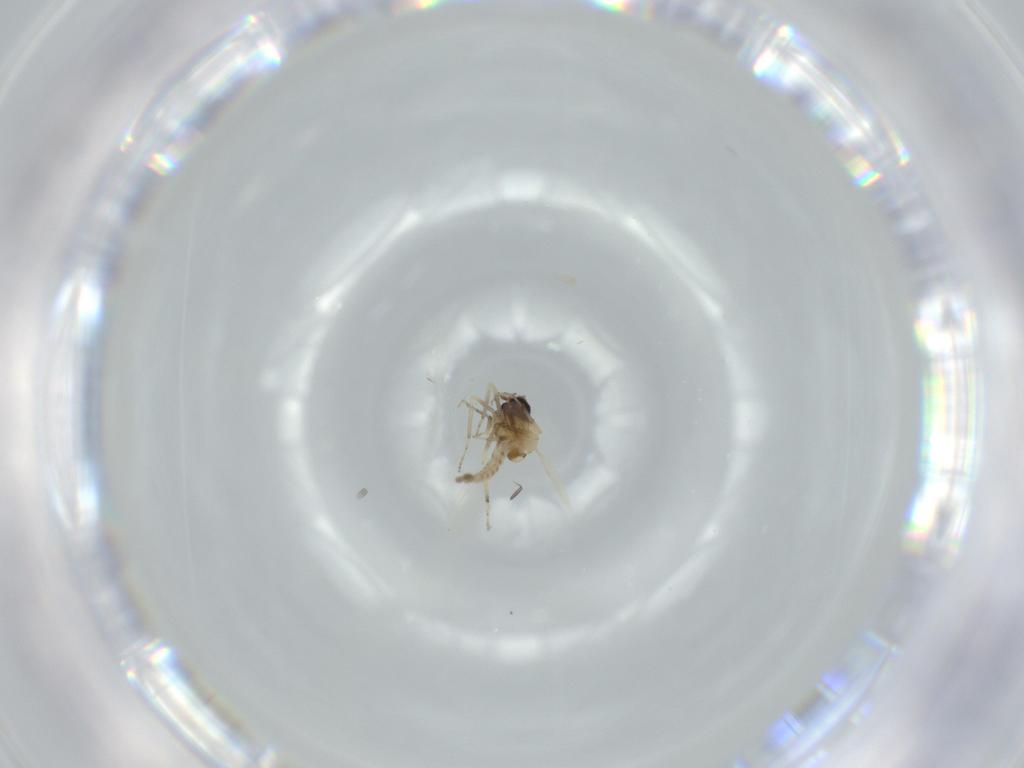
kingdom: Animalia
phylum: Arthropoda
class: Insecta
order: Diptera
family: Ceratopogonidae
